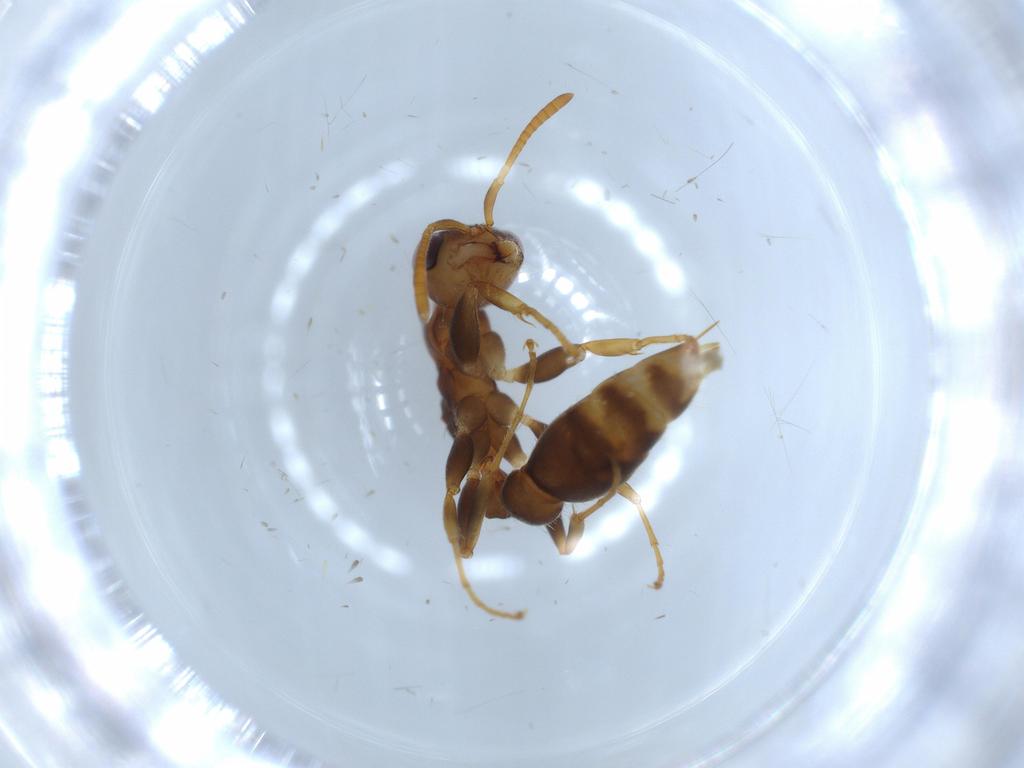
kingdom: Animalia
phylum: Arthropoda
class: Insecta
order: Hymenoptera
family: Formicidae
